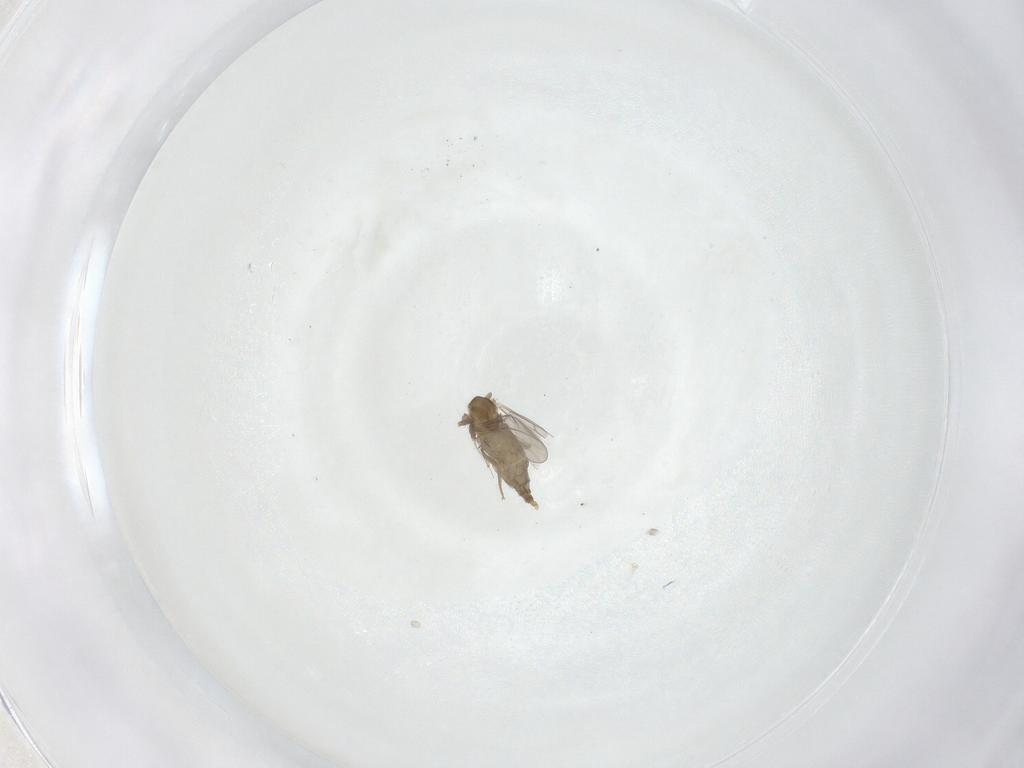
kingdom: Animalia
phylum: Arthropoda
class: Insecta
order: Diptera
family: Cecidomyiidae
